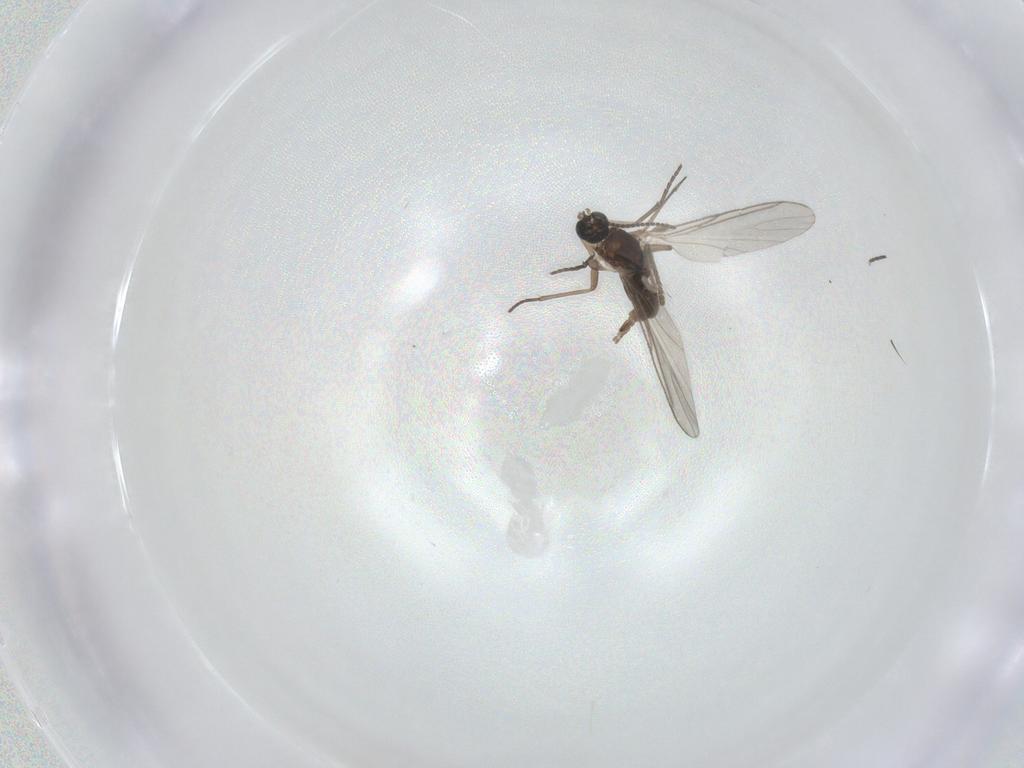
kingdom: Animalia
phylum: Arthropoda
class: Insecta
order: Diptera
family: Psychodidae
